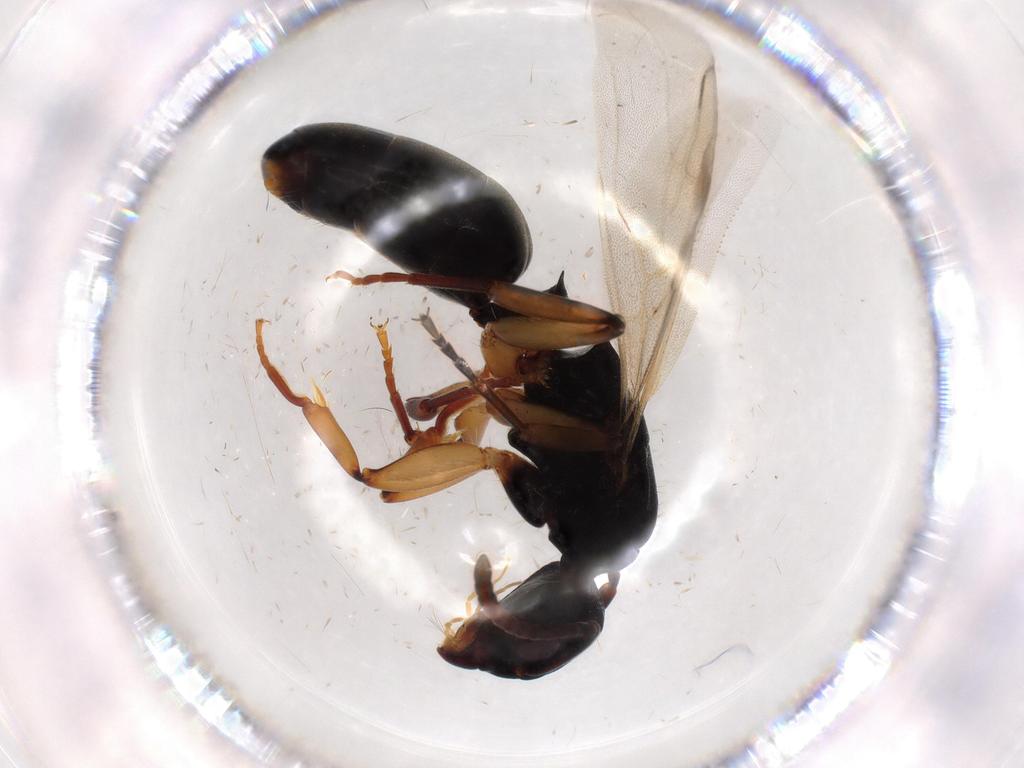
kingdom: Animalia
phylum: Arthropoda
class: Insecta
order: Hymenoptera
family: Formicidae
